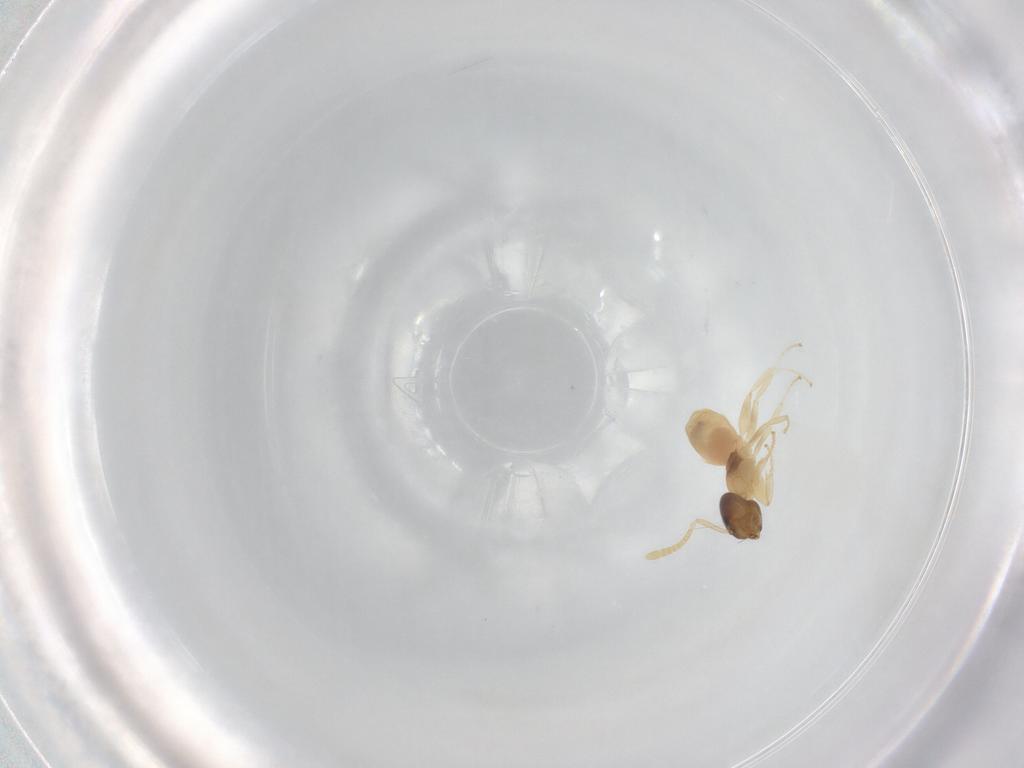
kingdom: Animalia
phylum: Arthropoda
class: Insecta
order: Hymenoptera
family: Formicidae
